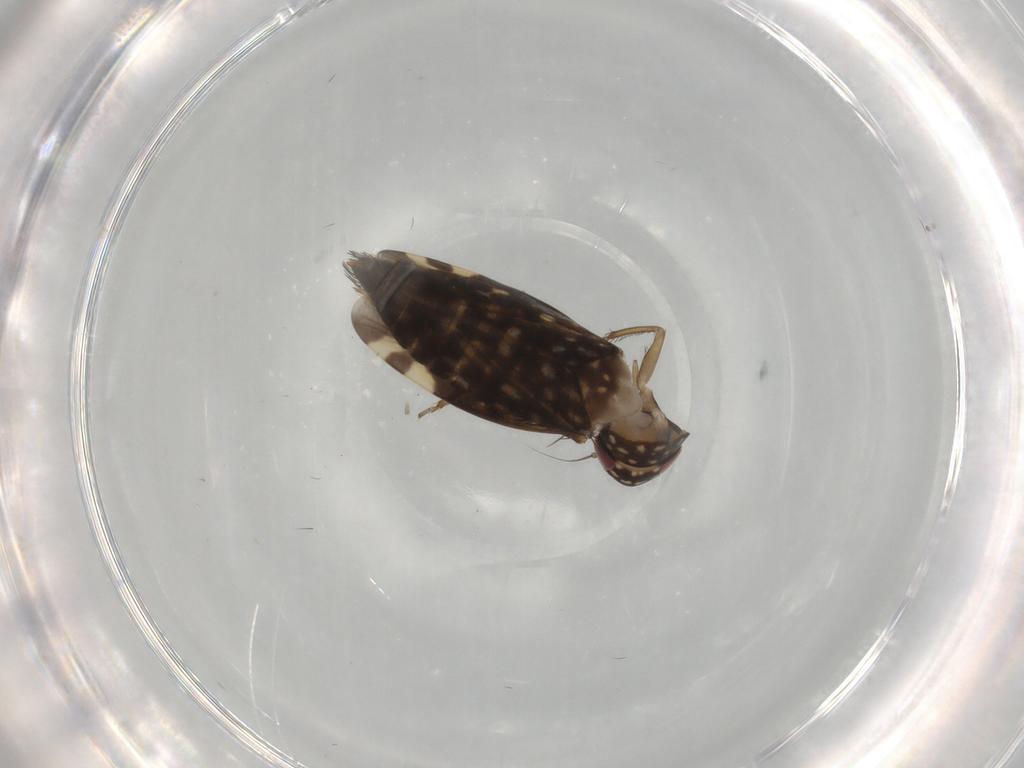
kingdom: Animalia
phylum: Arthropoda
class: Insecta
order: Hemiptera
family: Cicadellidae
